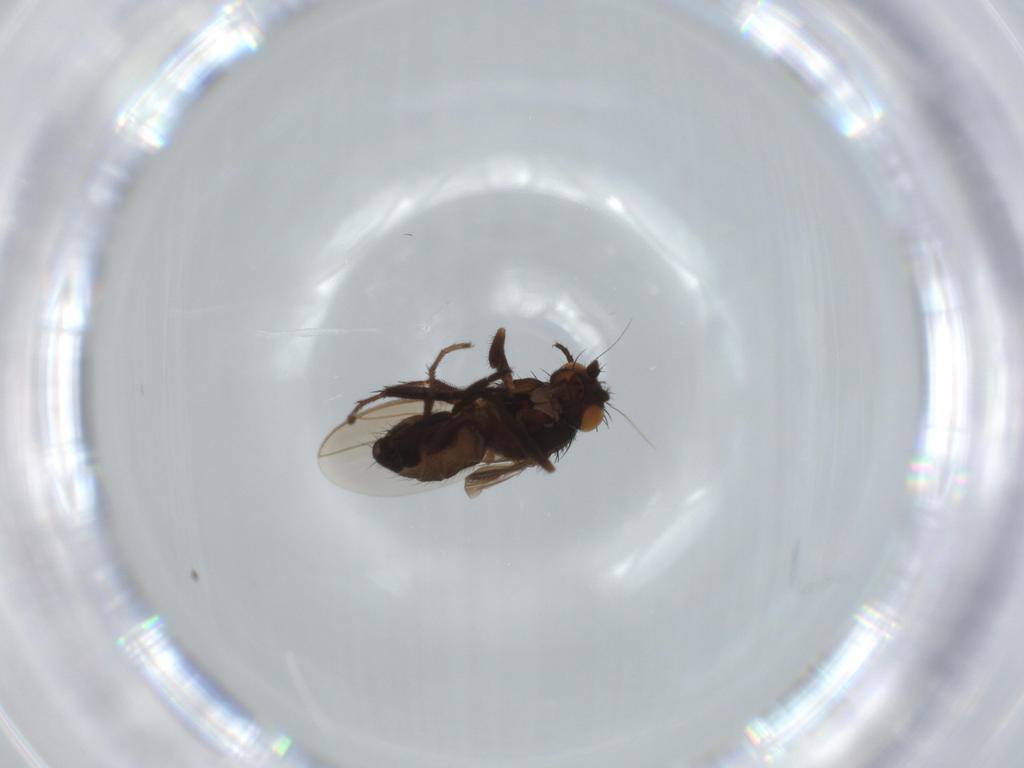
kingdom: Animalia
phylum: Arthropoda
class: Insecta
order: Diptera
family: Sphaeroceridae
